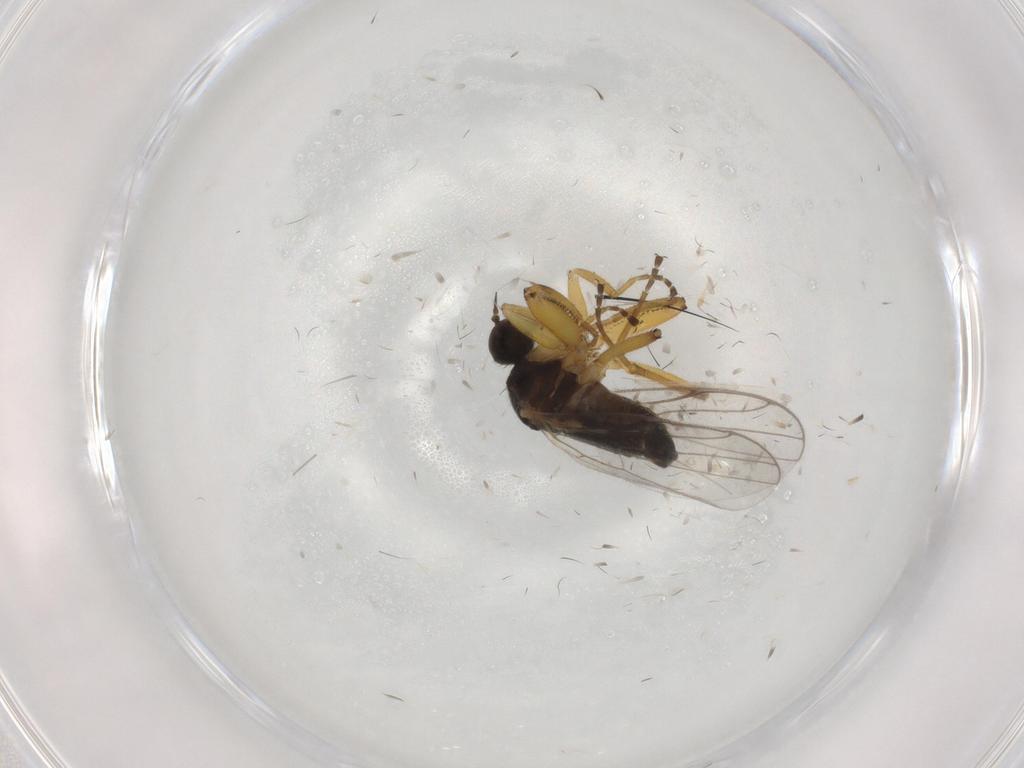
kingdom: Animalia
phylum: Arthropoda
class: Insecta
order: Diptera
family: Hybotidae
